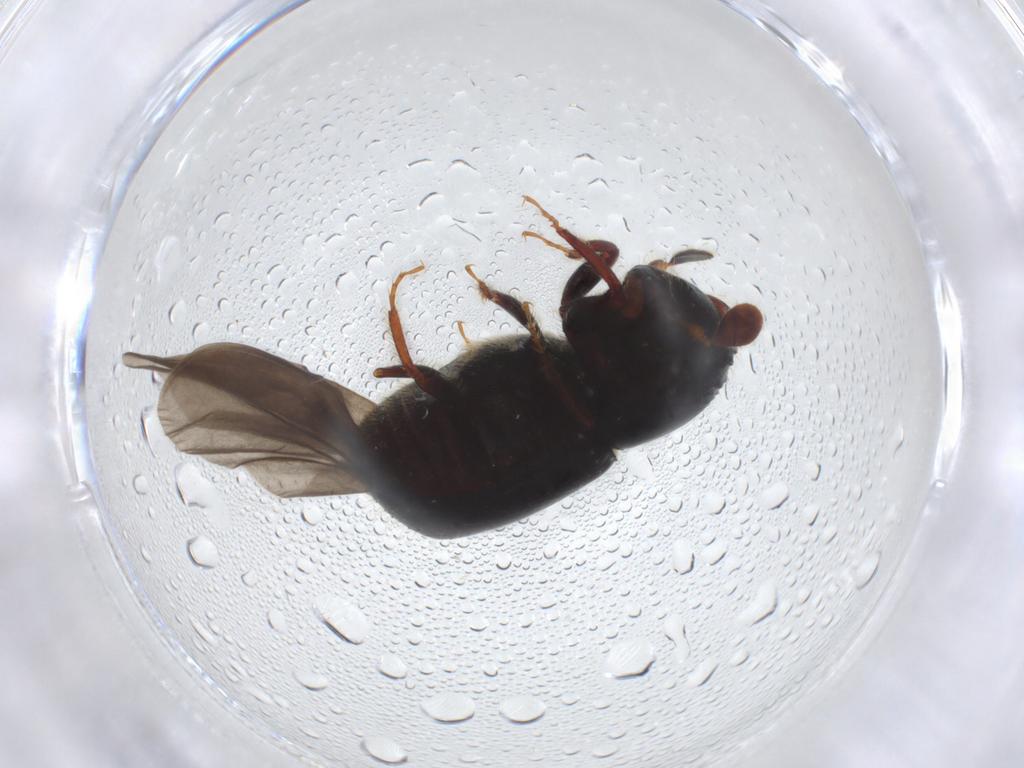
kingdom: Animalia
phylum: Arthropoda
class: Insecta
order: Coleoptera
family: Curculionidae
